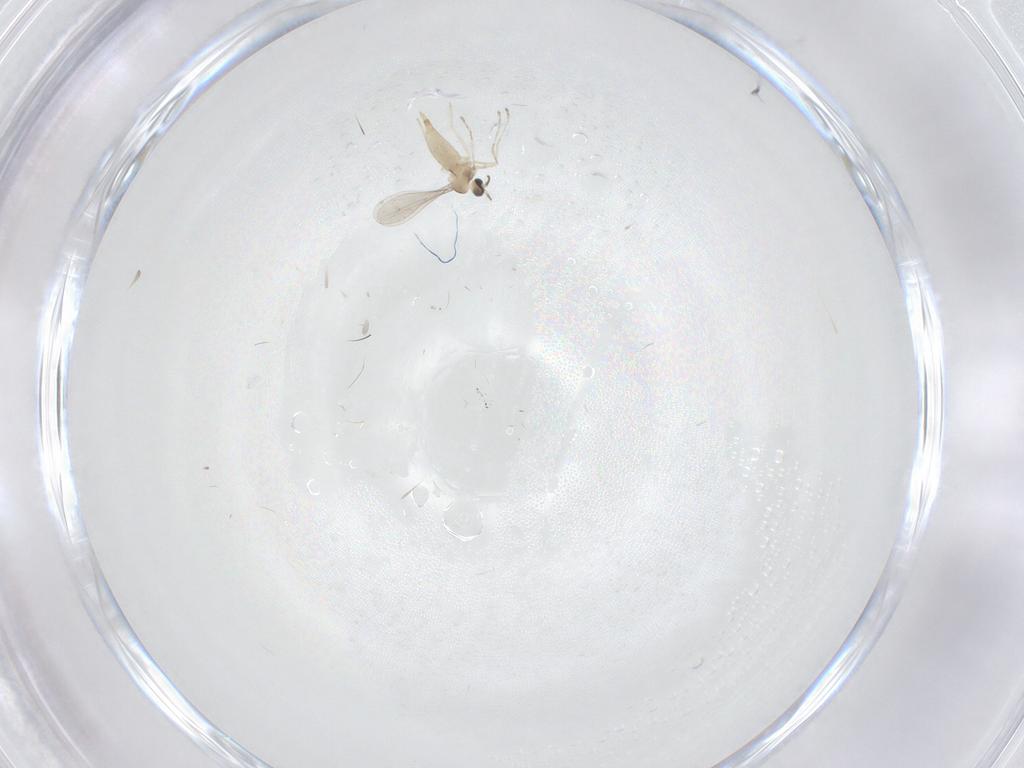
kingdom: Animalia
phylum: Arthropoda
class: Insecta
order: Diptera
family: Cecidomyiidae
